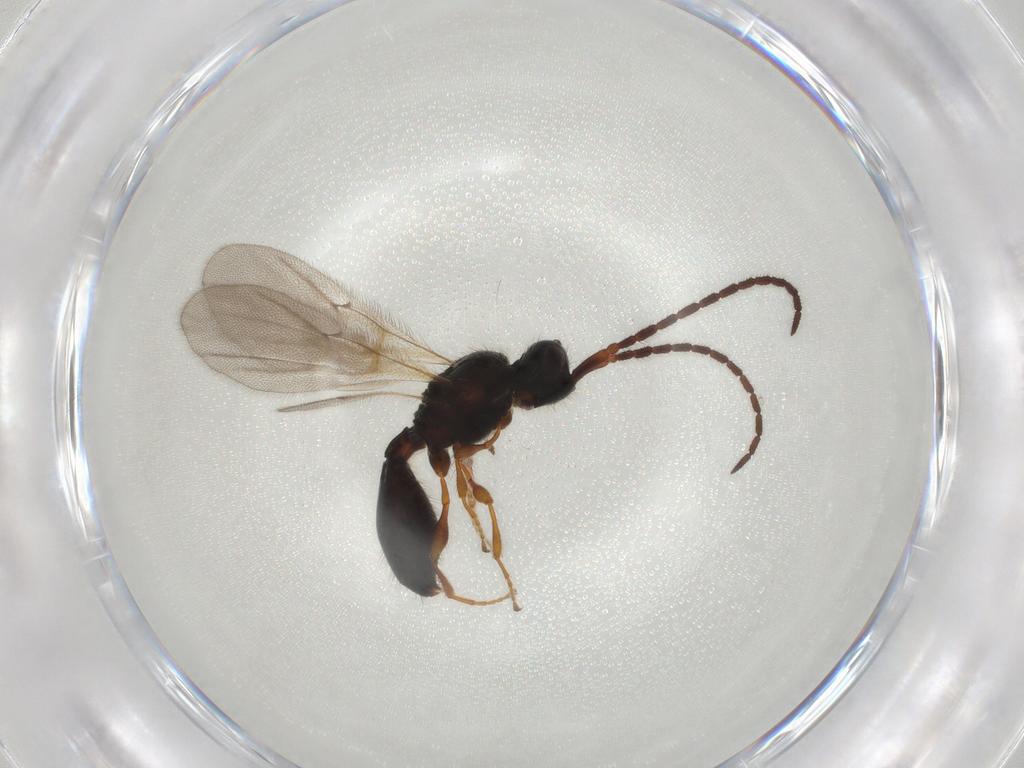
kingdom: Animalia
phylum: Arthropoda
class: Insecta
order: Hymenoptera
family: Diapriidae
